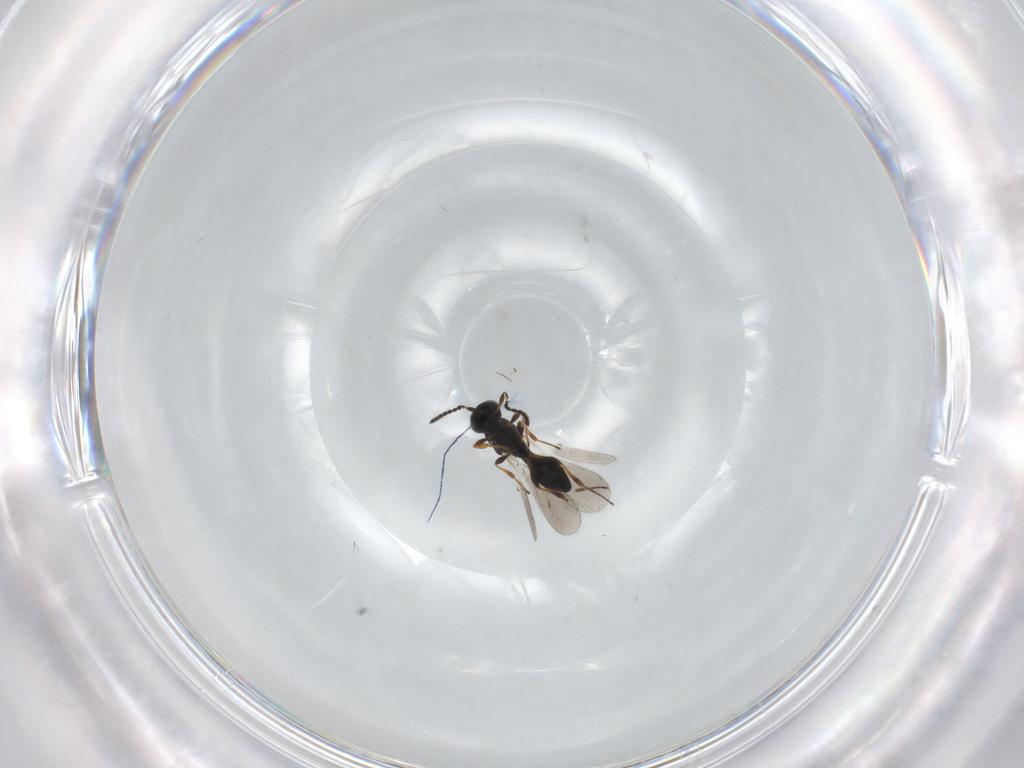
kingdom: Animalia
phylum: Arthropoda
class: Insecta
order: Hymenoptera
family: Platygastridae
